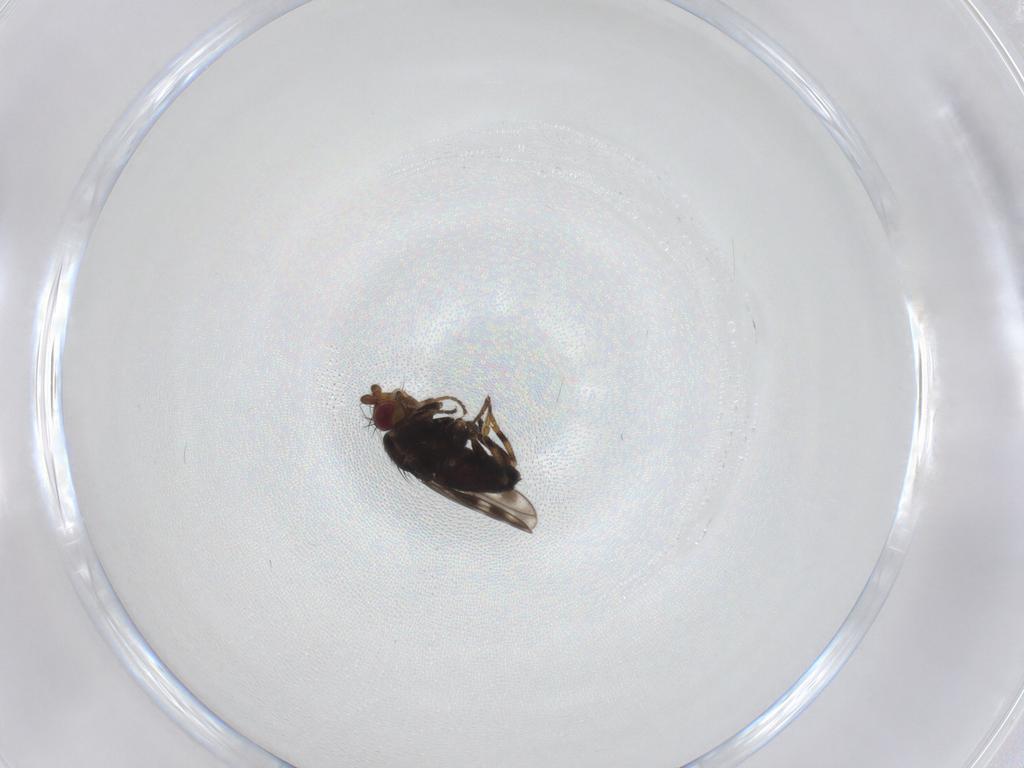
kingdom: Animalia
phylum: Arthropoda
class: Insecta
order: Diptera
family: Sphaeroceridae
